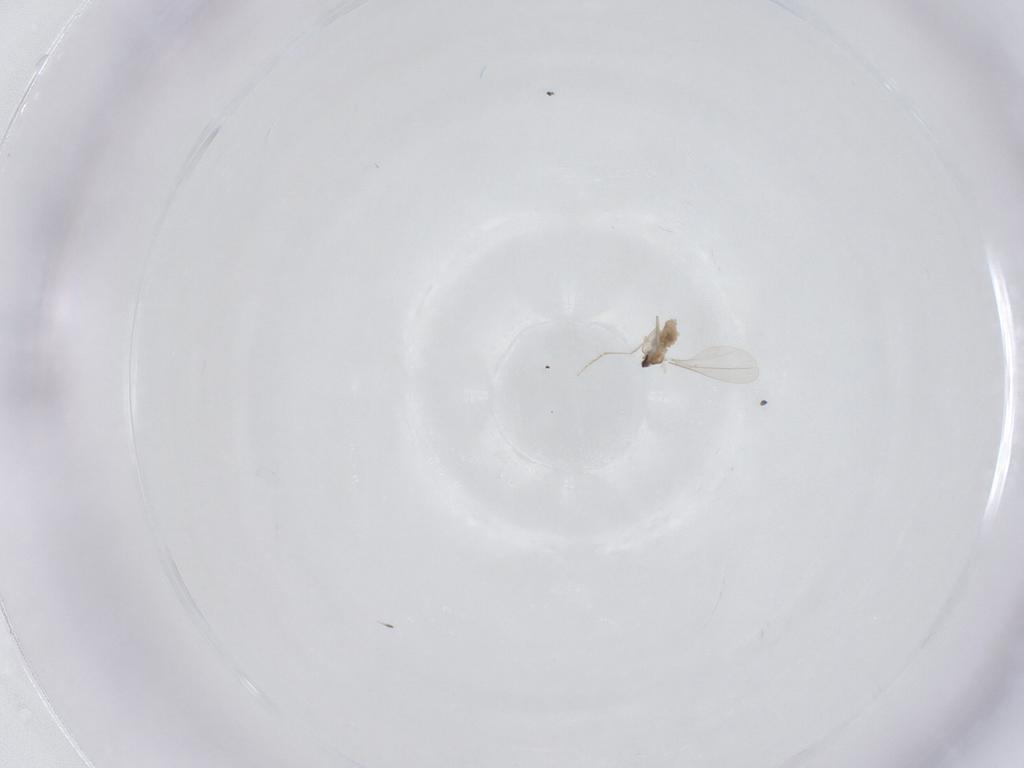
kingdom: Animalia
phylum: Arthropoda
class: Insecta
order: Diptera
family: Cecidomyiidae
